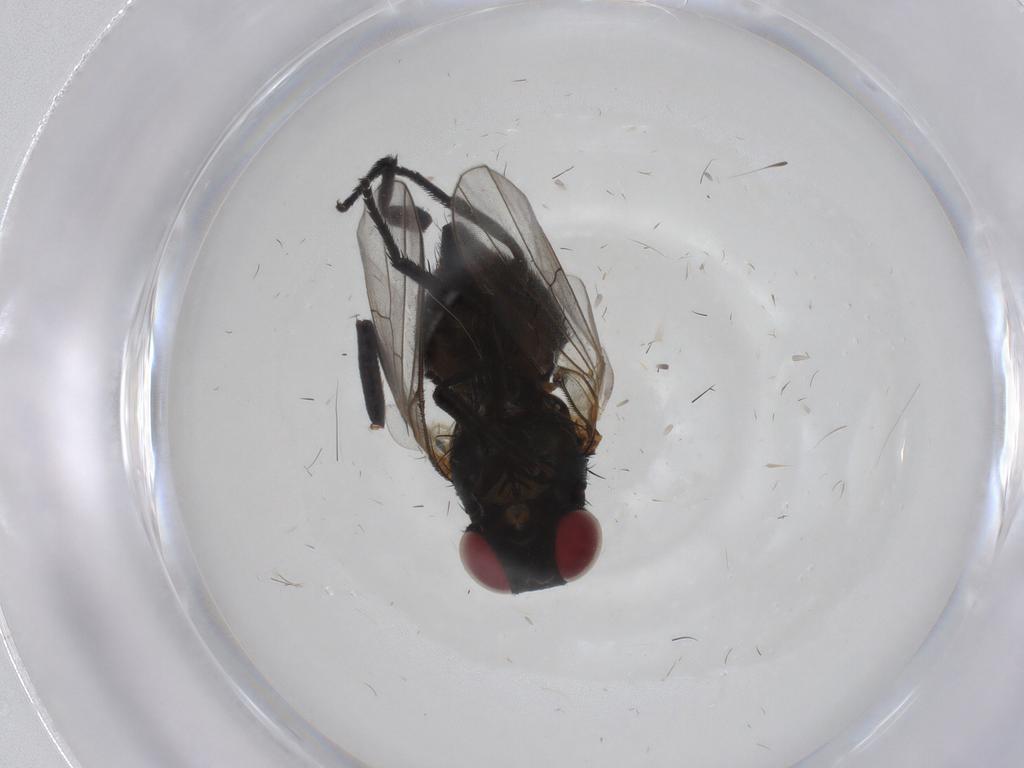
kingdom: Animalia
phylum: Arthropoda
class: Insecta
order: Diptera
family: Agromyzidae
